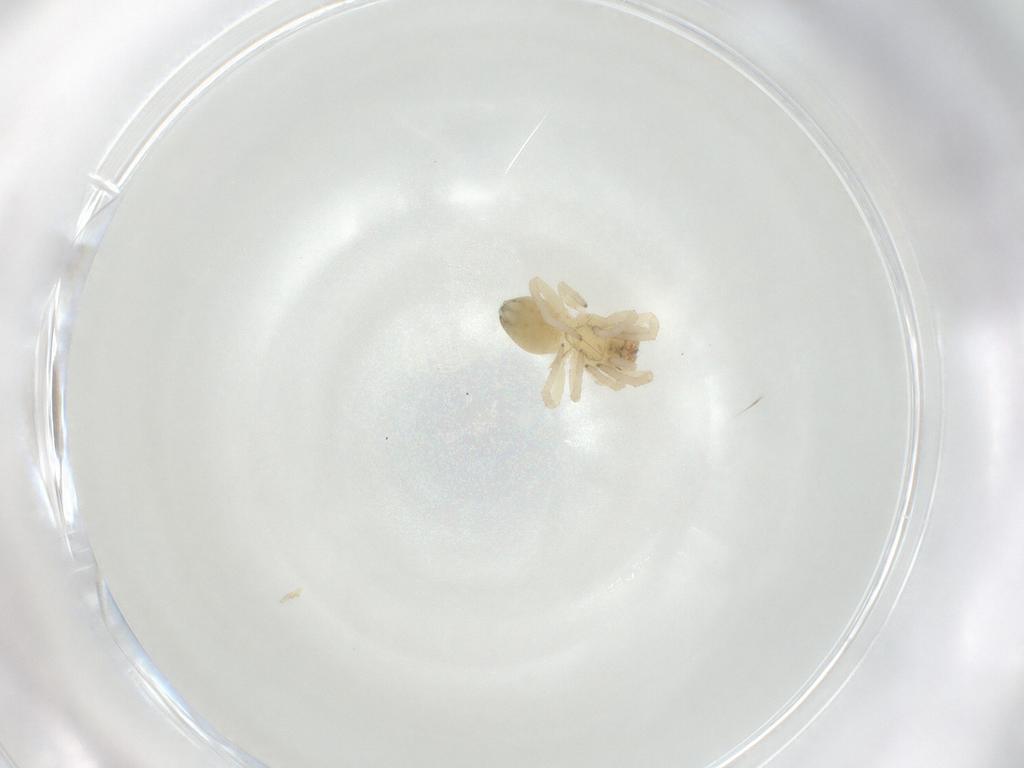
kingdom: Animalia
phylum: Arthropoda
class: Arachnida
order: Araneae
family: Trachelidae
